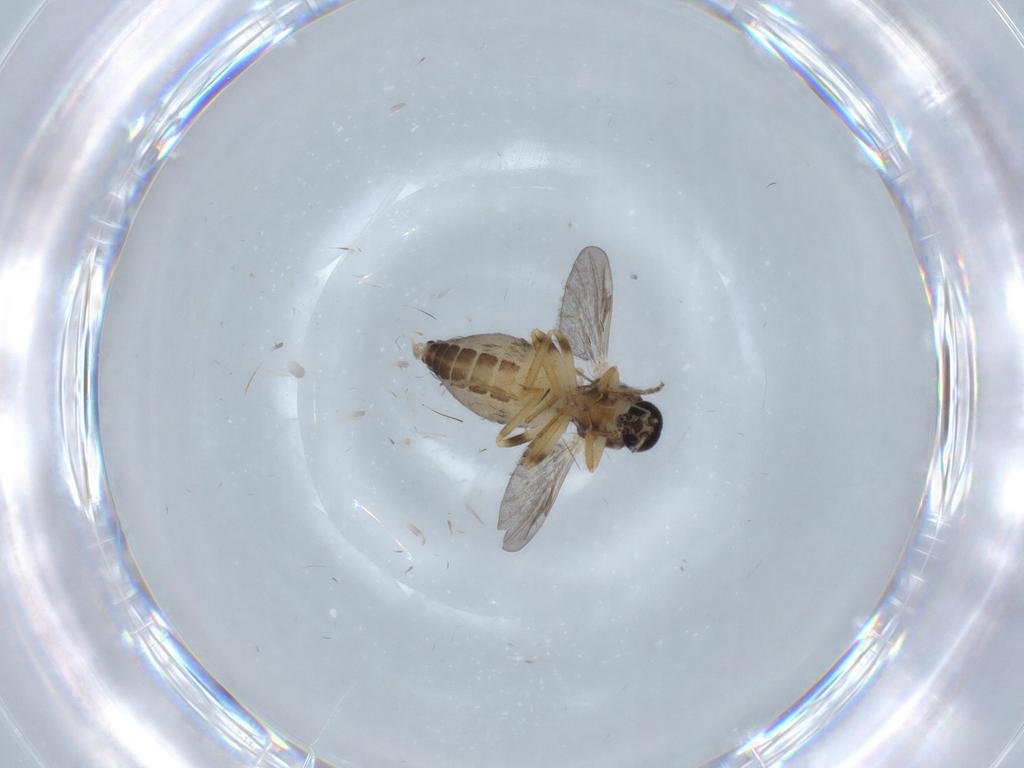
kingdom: Animalia
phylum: Arthropoda
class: Insecta
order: Diptera
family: Ceratopogonidae
